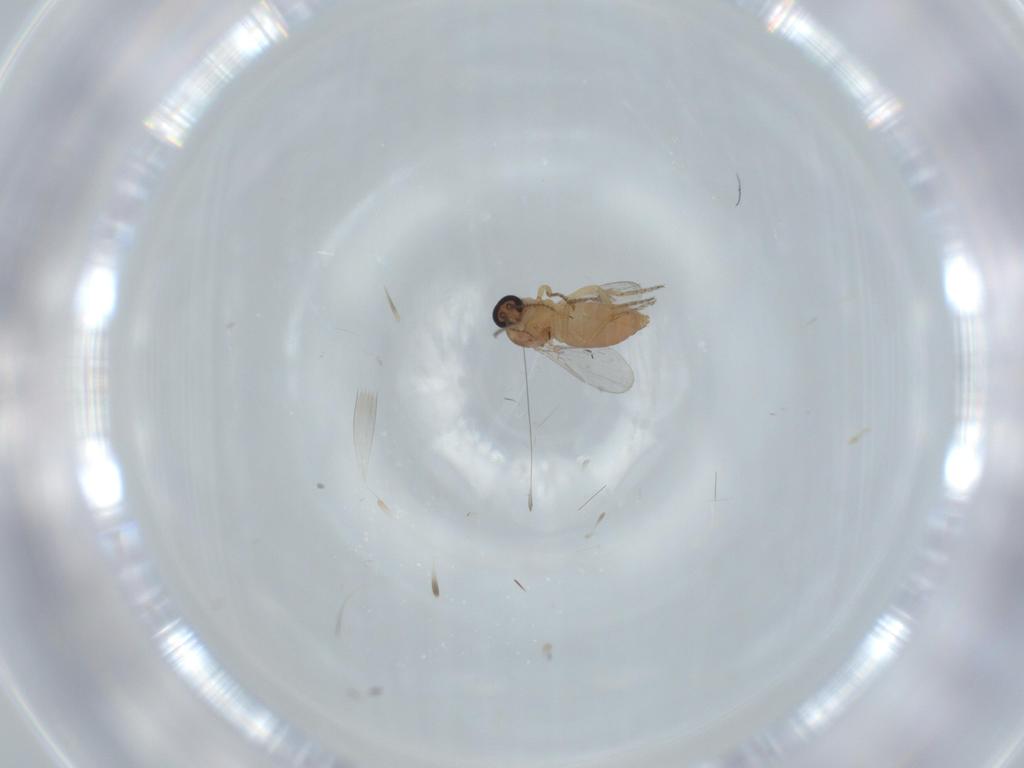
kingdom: Animalia
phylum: Arthropoda
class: Insecta
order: Diptera
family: Ceratopogonidae
